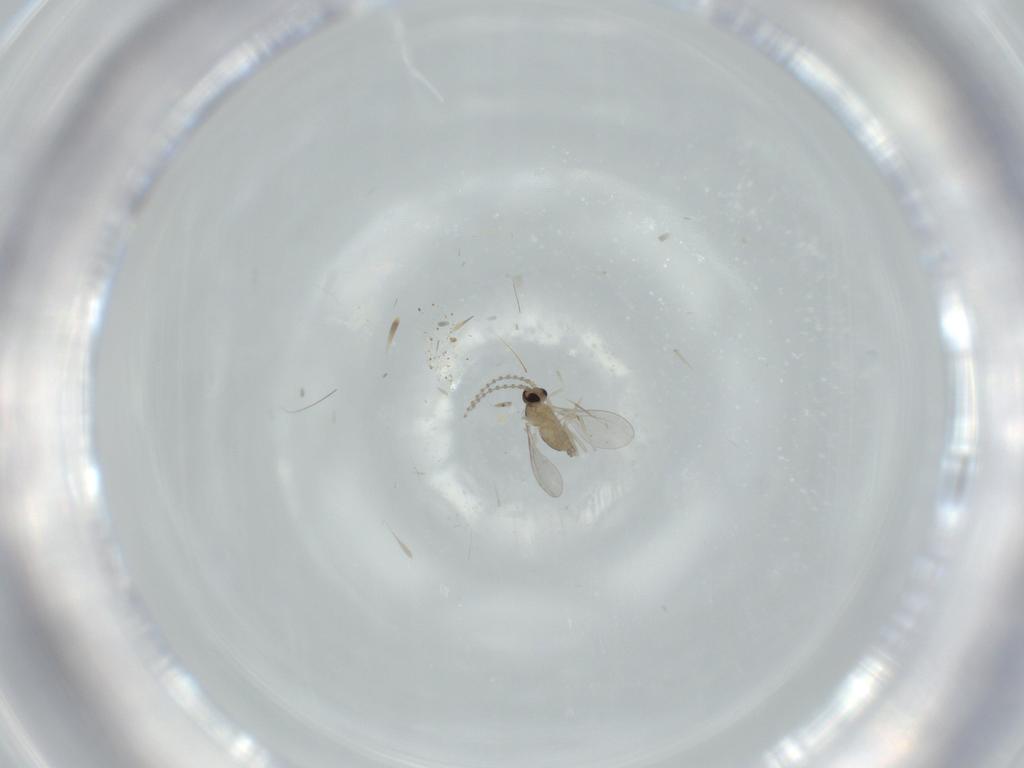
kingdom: Animalia
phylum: Arthropoda
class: Insecta
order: Diptera
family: Cecidomyiidae
